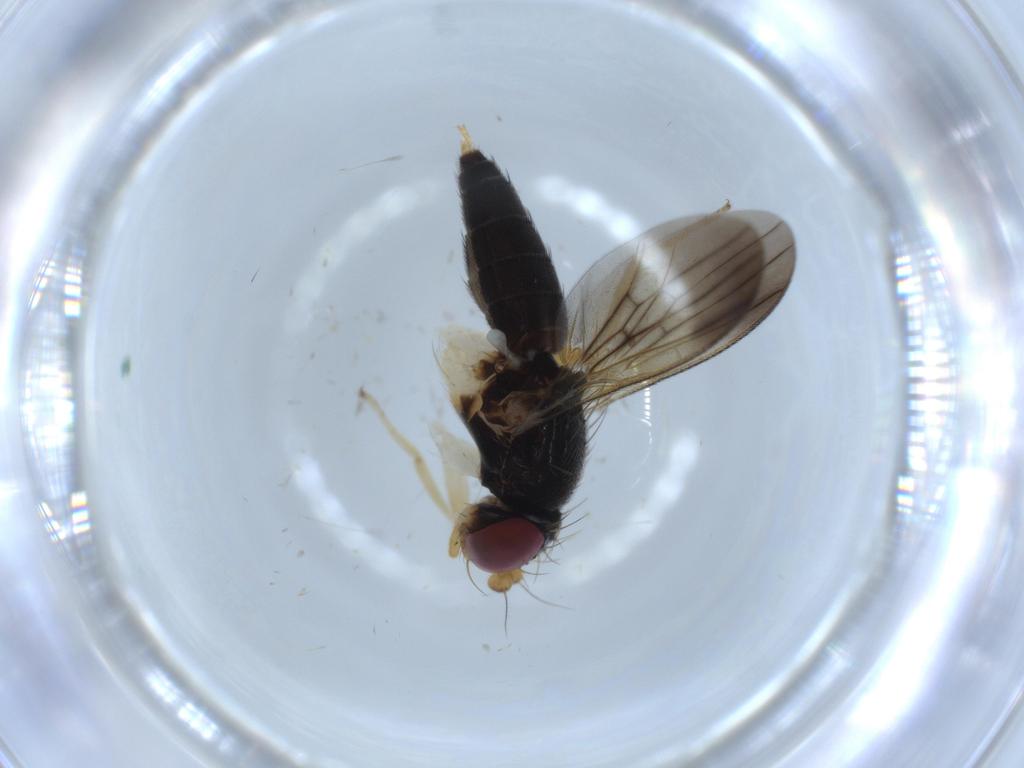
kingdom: Animalia
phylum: Arthropoda
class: Insecta
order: Diptera
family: Clusiidae
